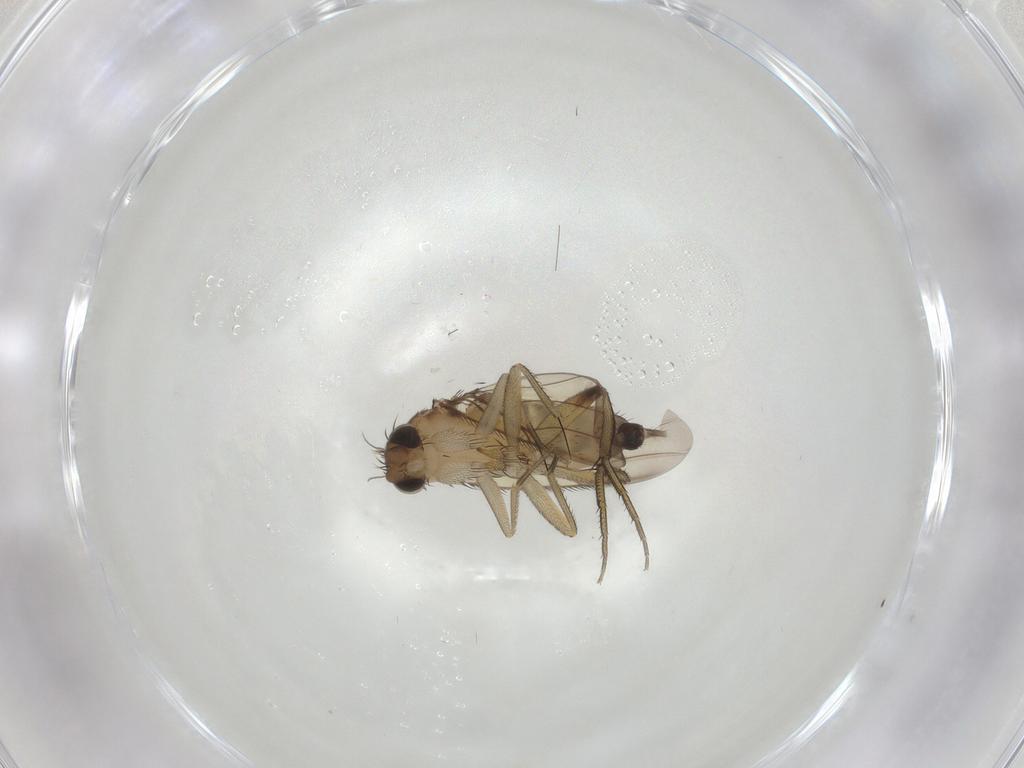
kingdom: Animalia
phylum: Arthropoda
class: Insecta
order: Diptera
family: Phoridae
